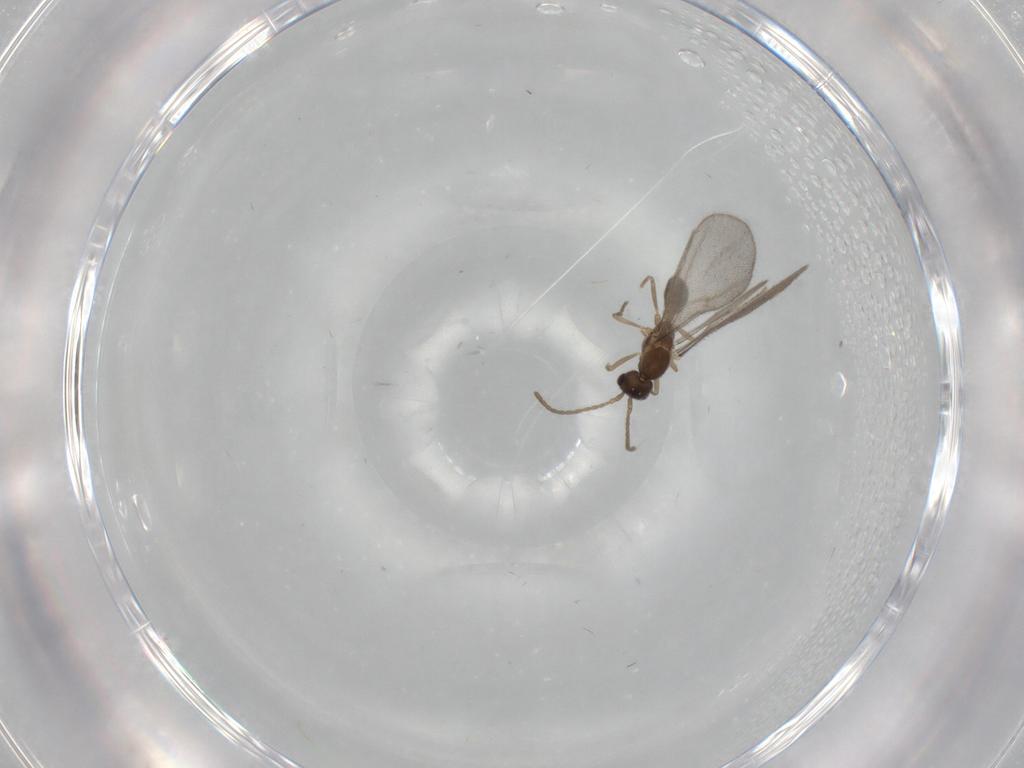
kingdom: Animalia
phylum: Arthropoda
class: Insecta
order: Hymenoptera
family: Formicidae
